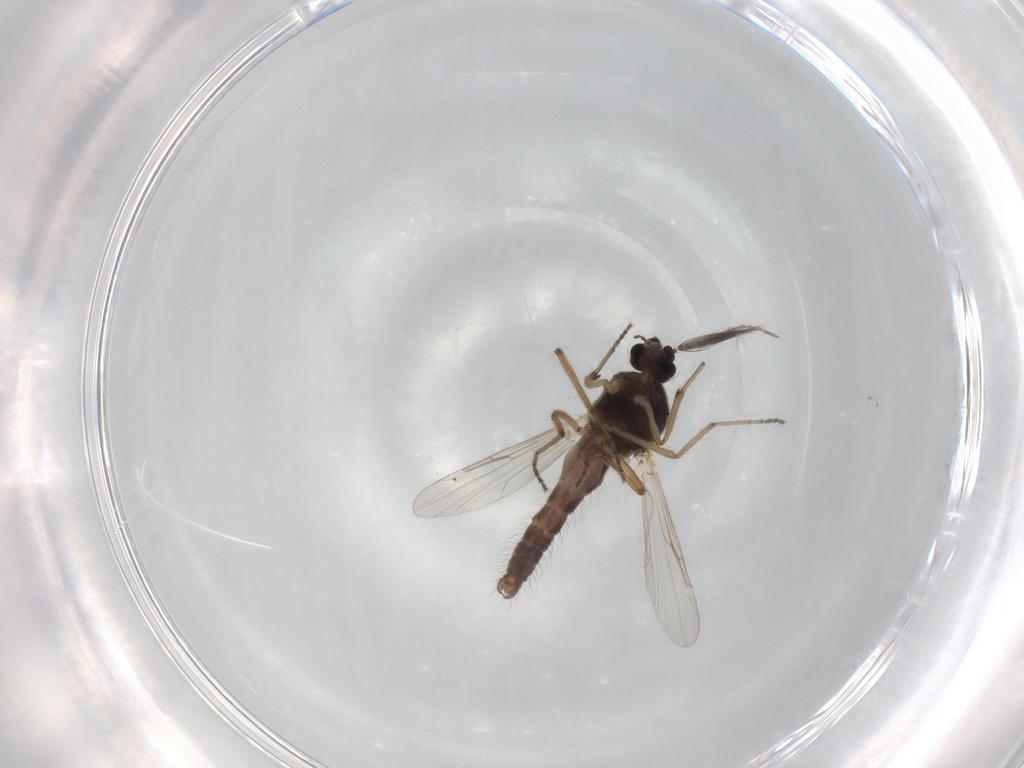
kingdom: Animalia
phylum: Arthropoda
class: Insecta
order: Diptera
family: Ceratopogonidae
